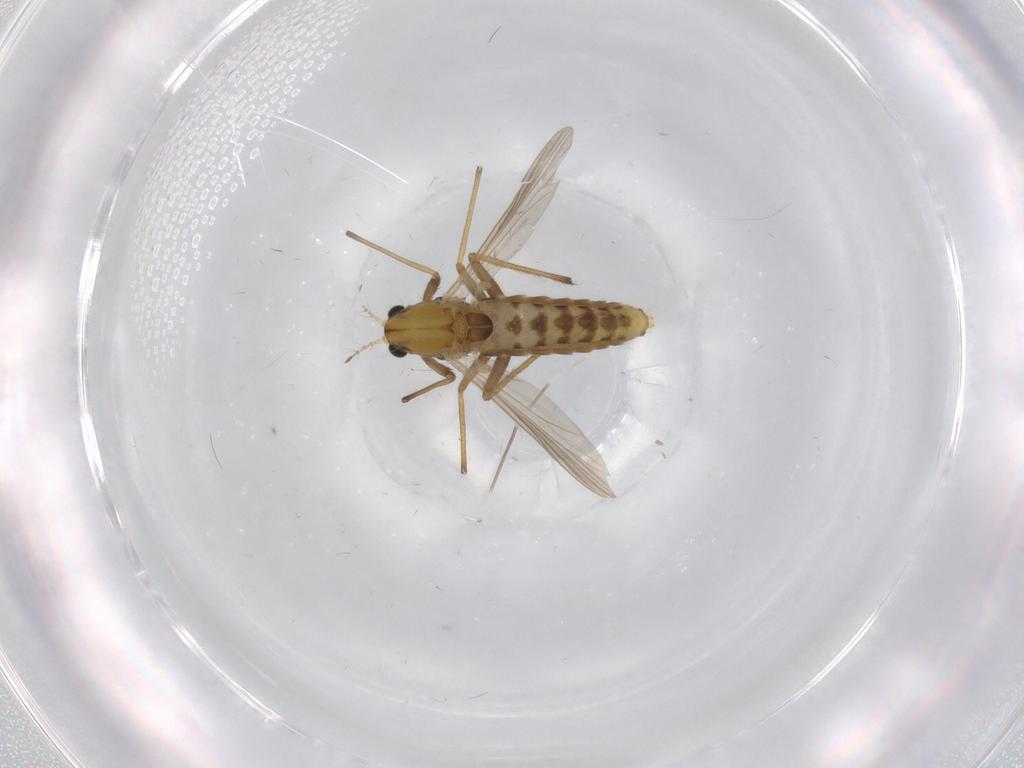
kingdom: Animalia
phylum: Arthropoda
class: Insecta
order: Diptera
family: Chironomidae
